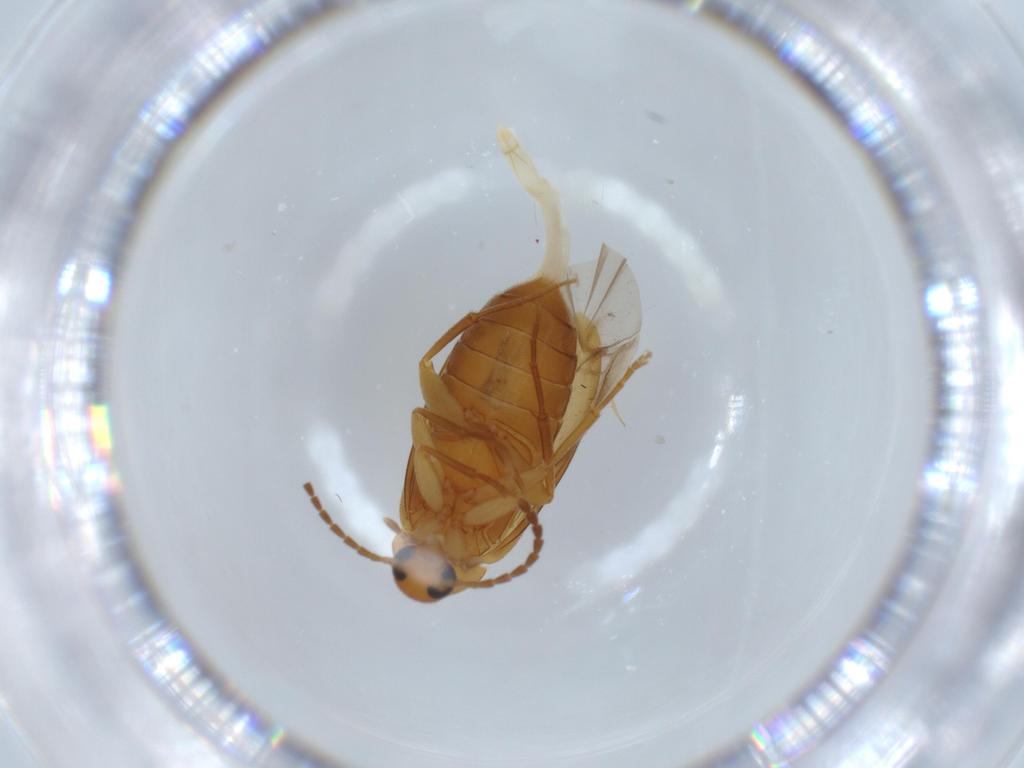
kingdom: Animalia
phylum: Arthropoda
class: Insecta
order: Coleoptera
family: Scraptiidae
